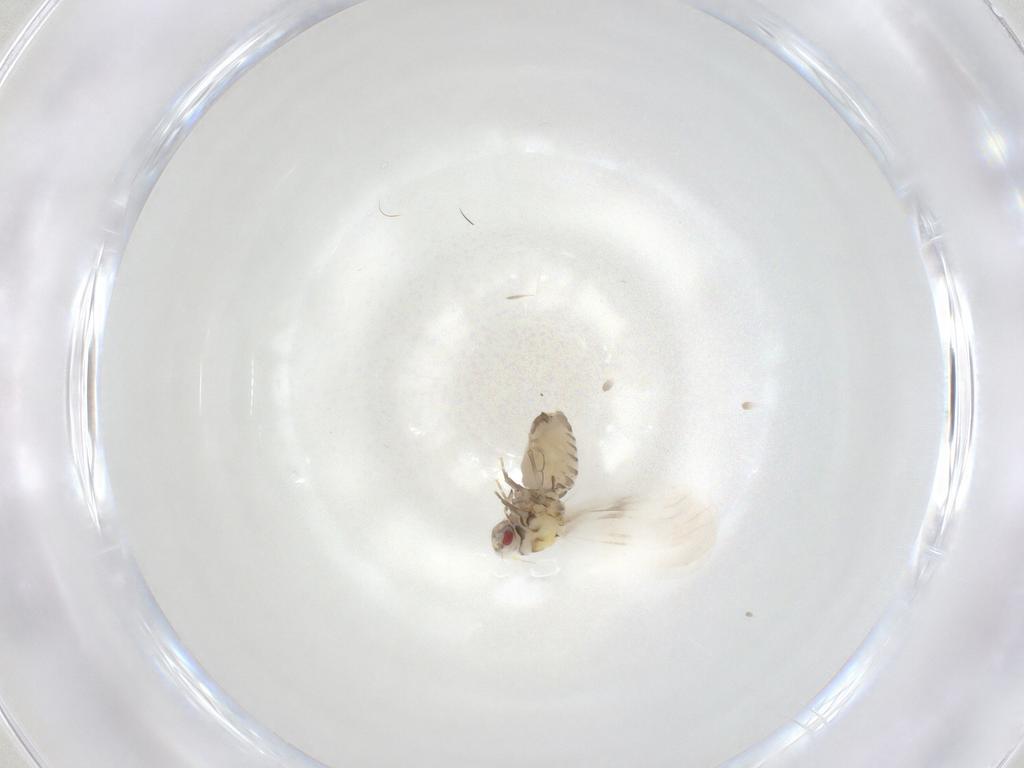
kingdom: Animalia
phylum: Arthropoda
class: Insecta
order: Hemiptera
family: Aleyrodidae
